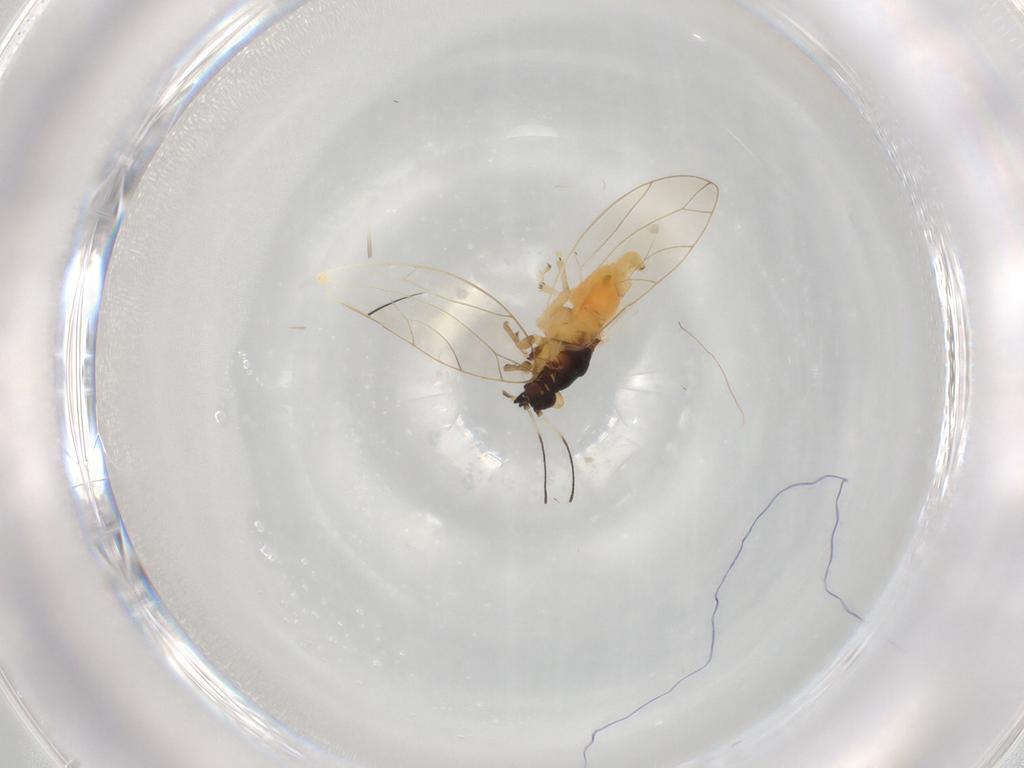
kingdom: Animalia
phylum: Arthropoda
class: Insecta
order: Hemiptera
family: Triozidae
